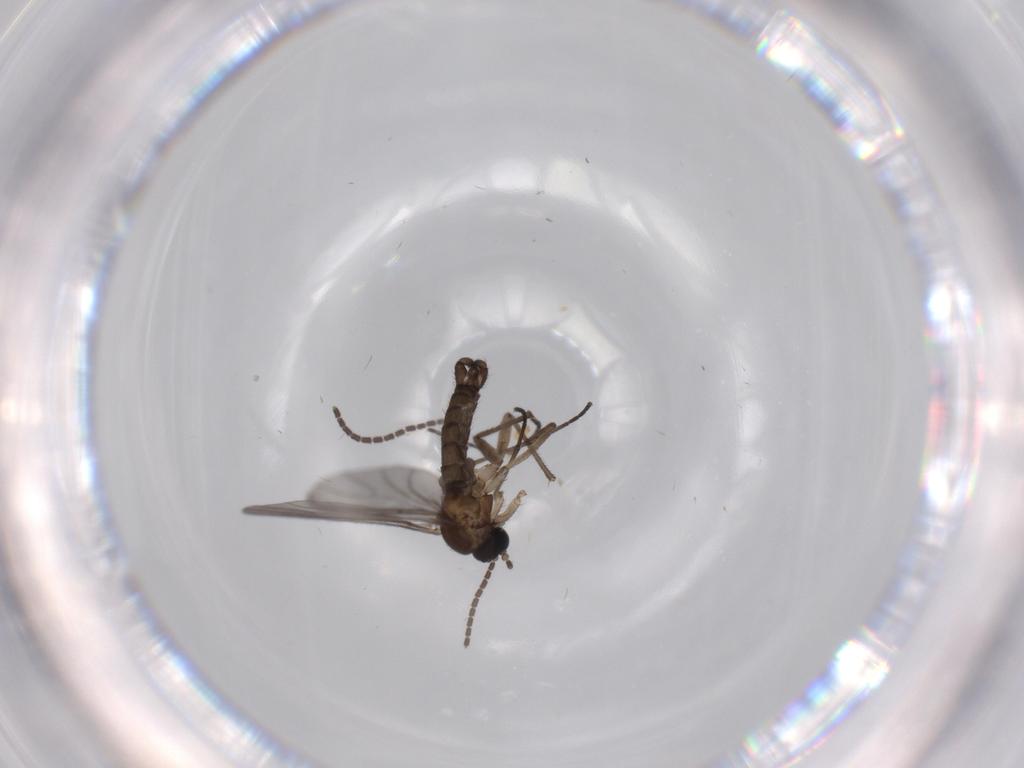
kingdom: Animalia
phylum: Arthropoda
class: Insecta
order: Diptera
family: Sciaridae
